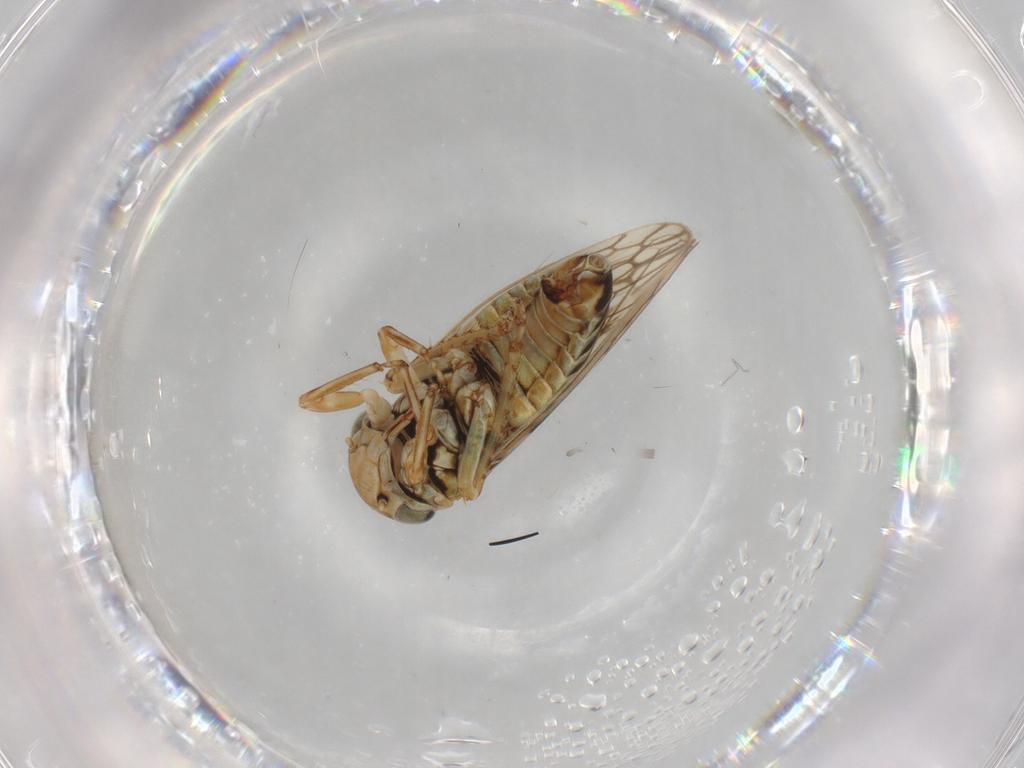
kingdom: Animalia
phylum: Arthropoda
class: Insecta
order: Hemiptera
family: Cicadellidae
